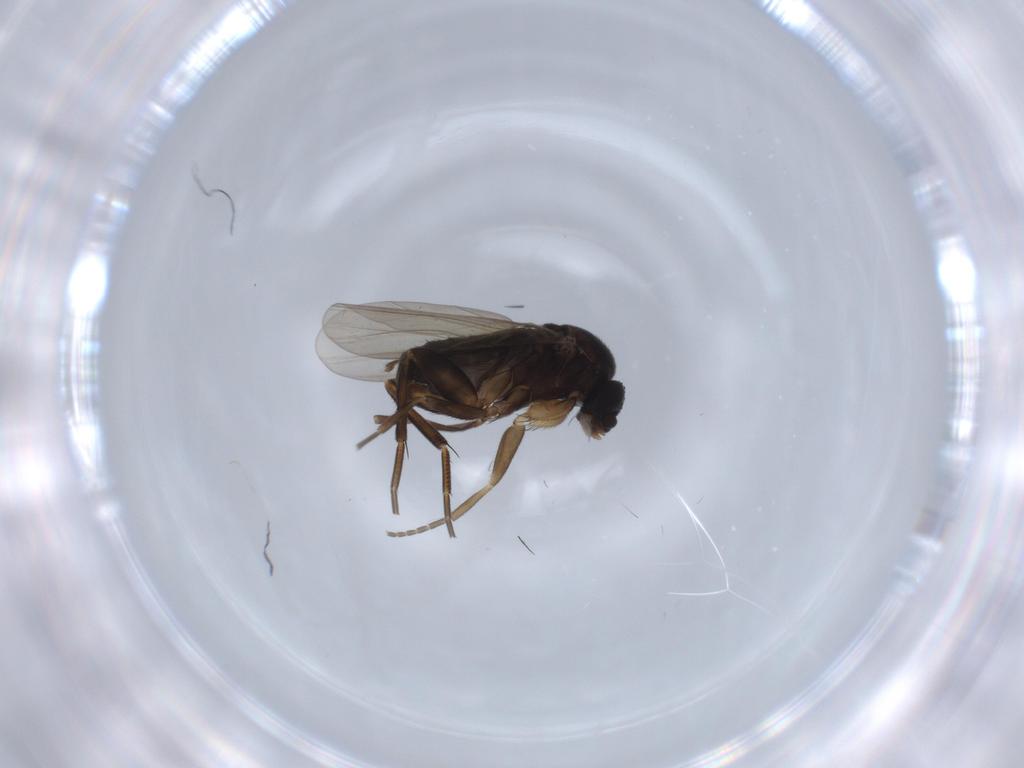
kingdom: Animalia
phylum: Arthropoda
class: Insecta
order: Diptera
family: Phoridae
